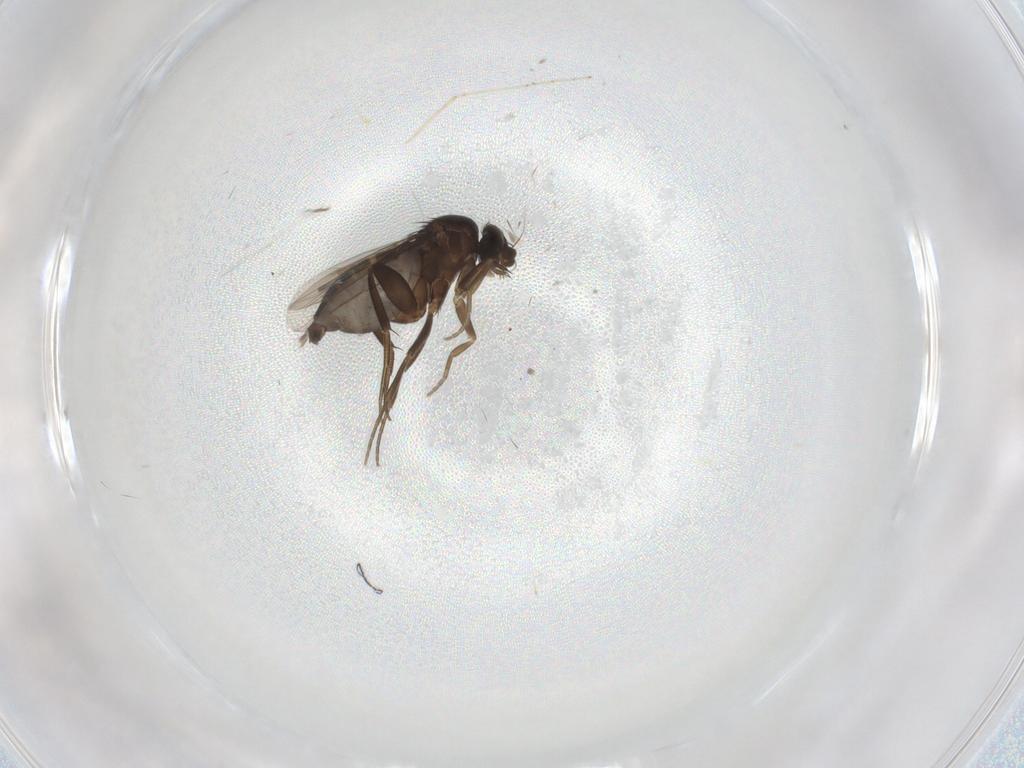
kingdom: Animalia
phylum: Arthropoda
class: Insecta
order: Diptera
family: Phoridae
